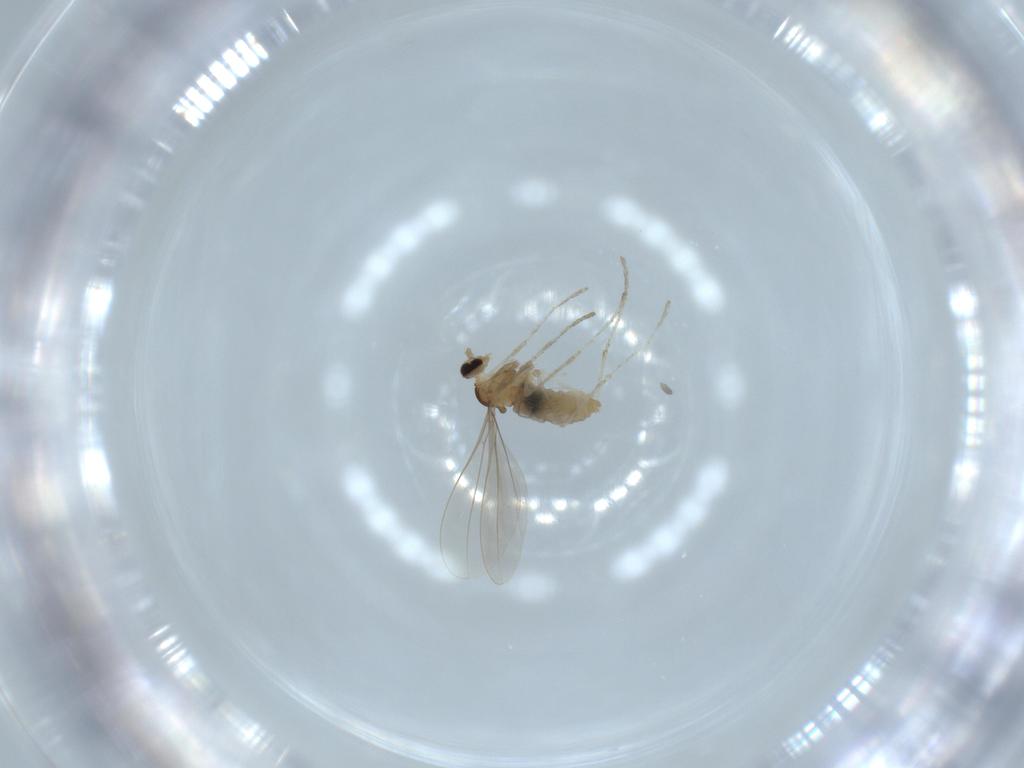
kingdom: Animalia
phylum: Arthropoda
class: Insecta
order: Diptera
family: Cecidomyiidae
